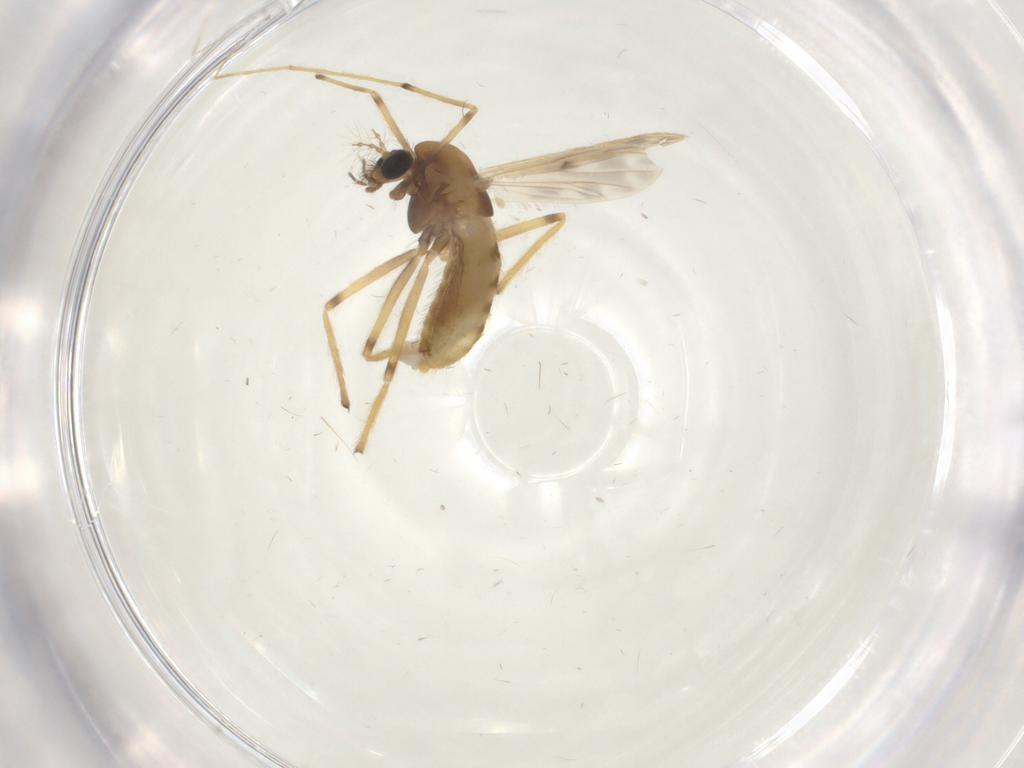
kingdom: Animalia
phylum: Arthropoda
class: Insecta
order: Diptera
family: Chironomidae
